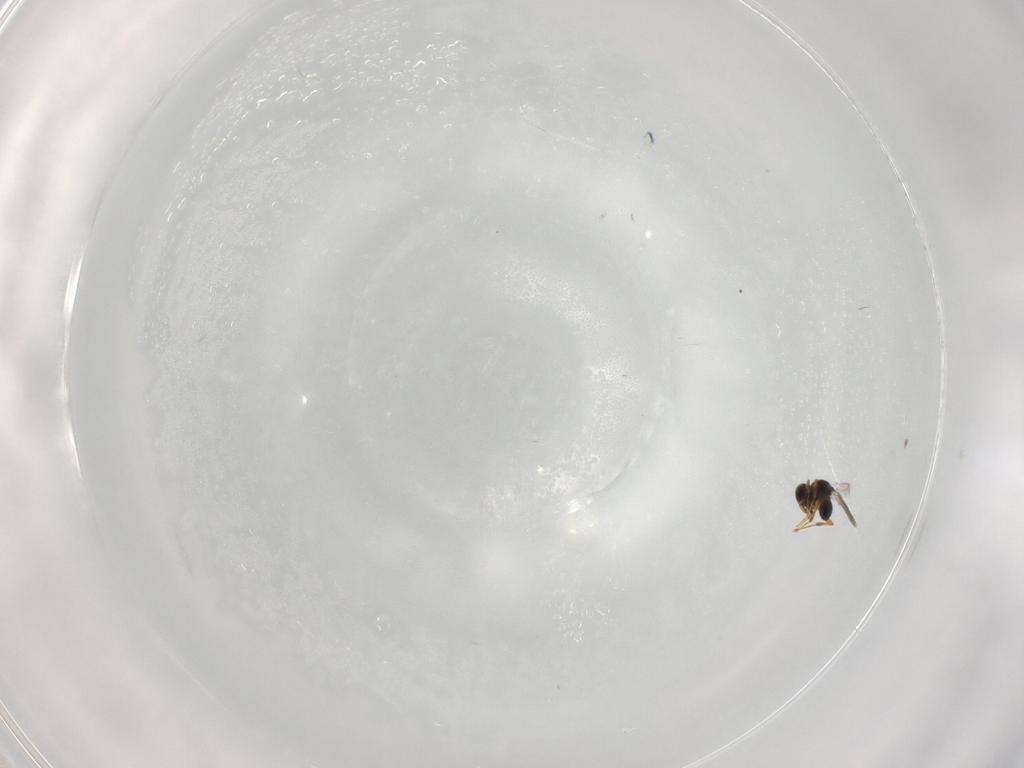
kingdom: Animalia
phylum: Arthropoda
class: Insecta
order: Hymenoptera
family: Platygastridae
